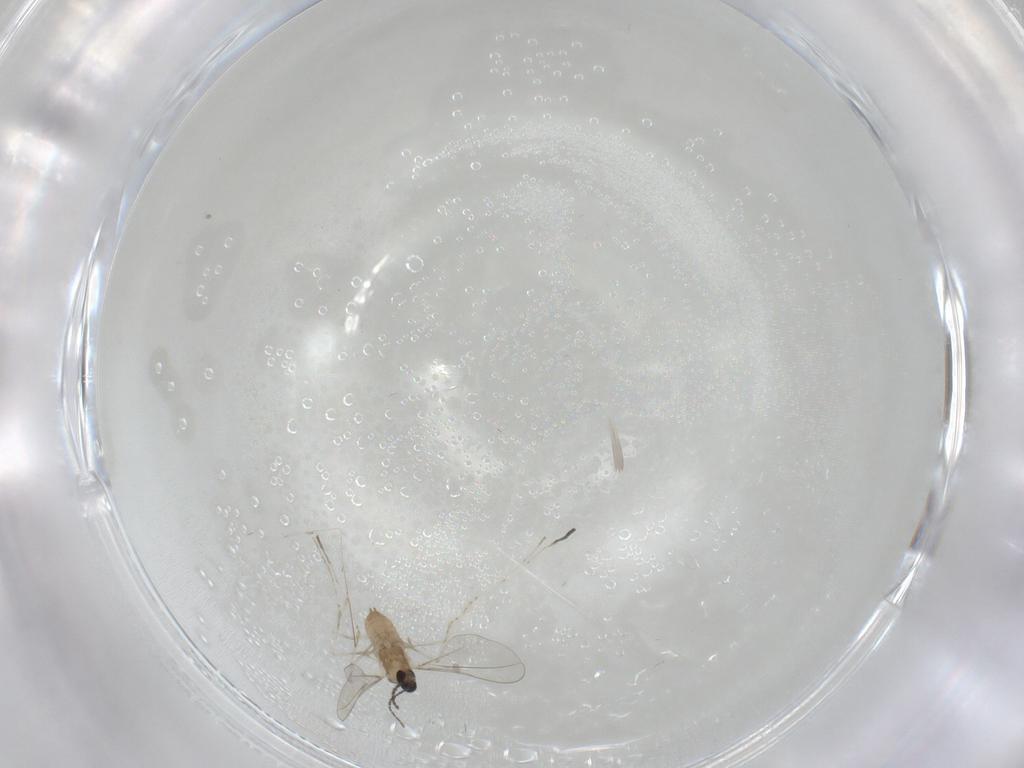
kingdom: Animalia
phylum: Arthropoda
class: Insecta
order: Diptera
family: Cecidomyiidae
